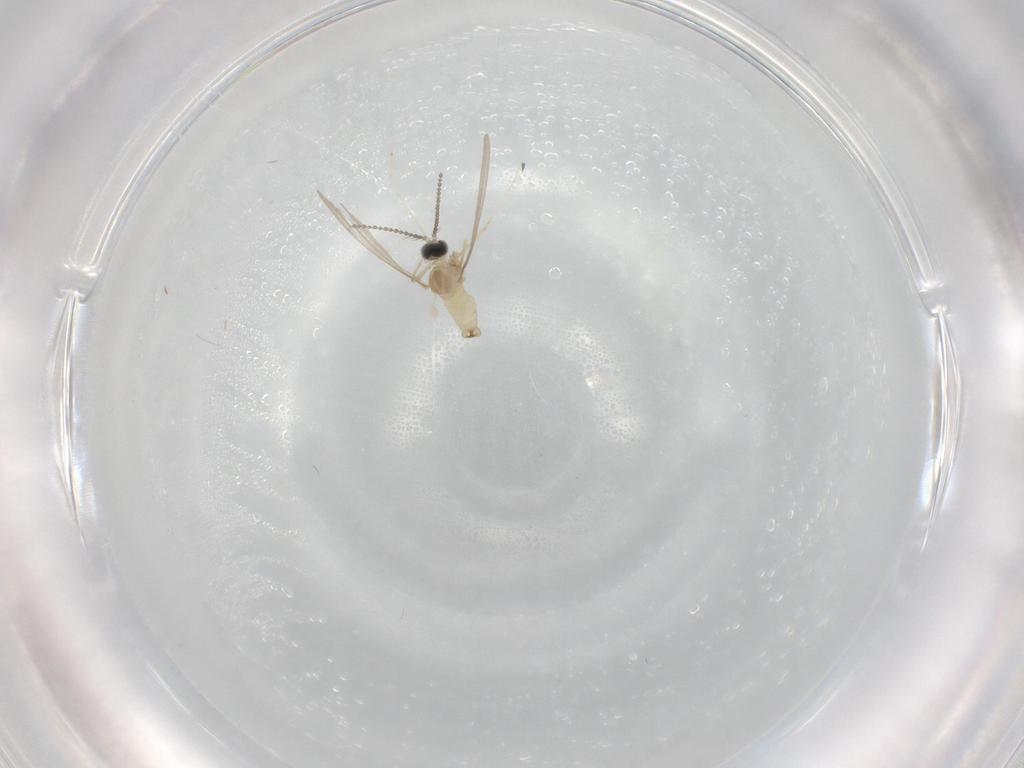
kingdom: Animalia
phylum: Arthropoda
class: Insecta
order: Diptera
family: Cecidomyiidae
